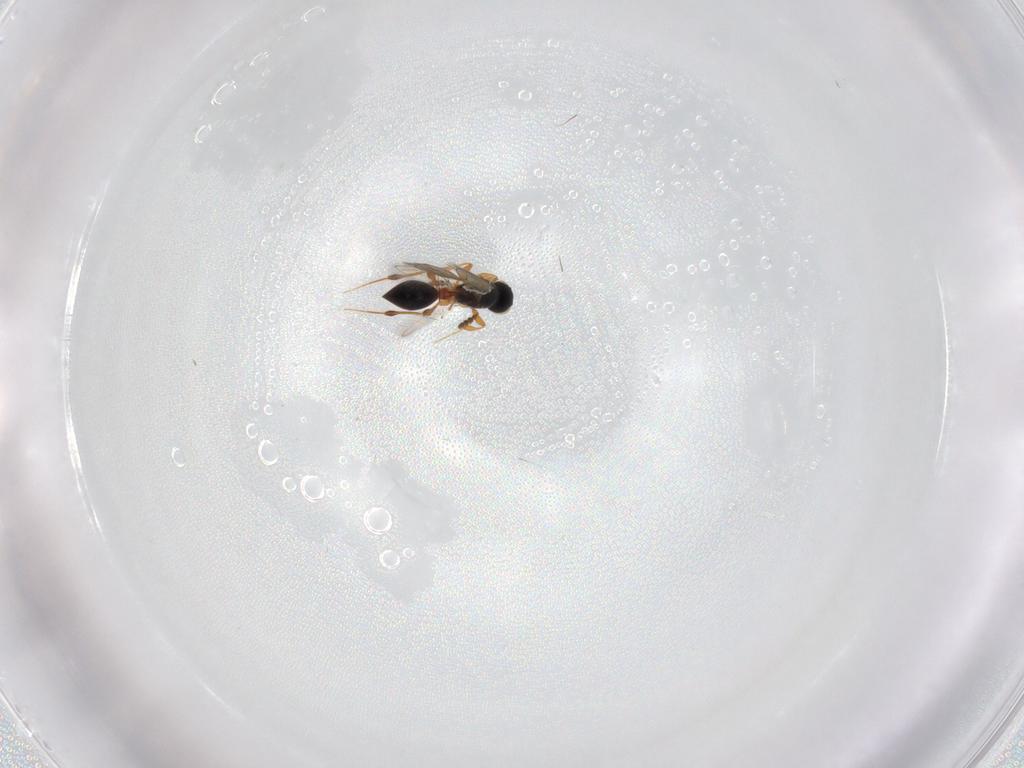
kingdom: Animalia
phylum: Arthropoda
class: Insecta
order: Hymenoptera
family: Platygastridae
